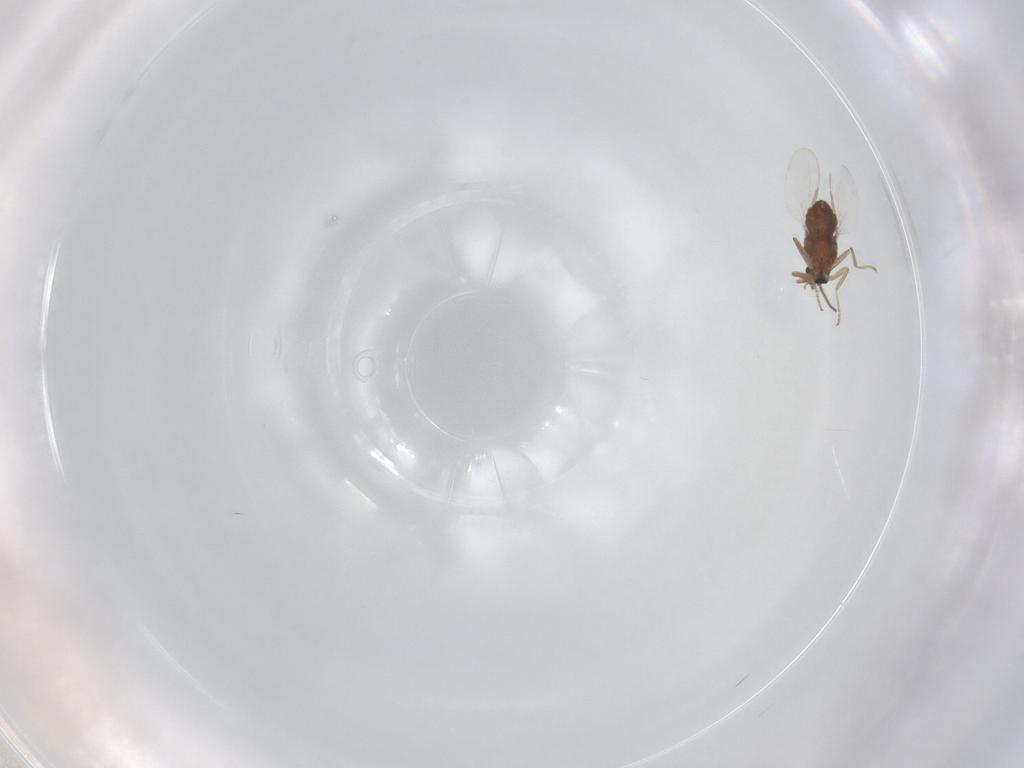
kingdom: Animalia
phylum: Arthropoda
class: Insecta
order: Diptera
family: Ceratopogonidae
